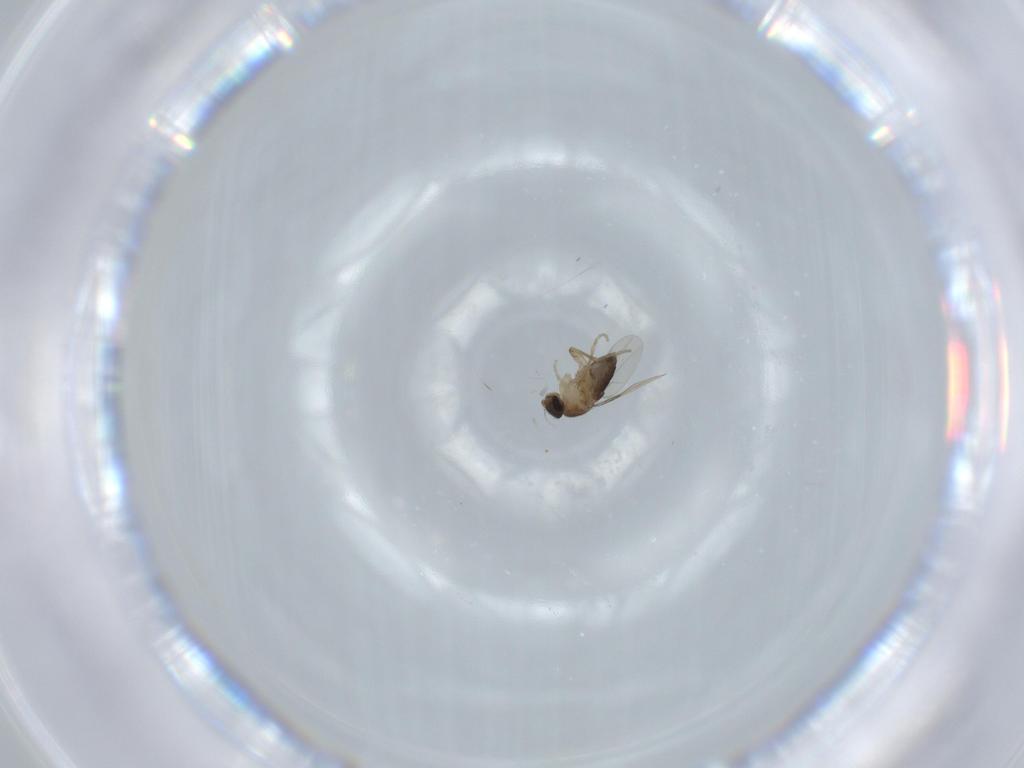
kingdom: Animalia
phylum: Arthropoda
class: Insecta
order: Diptera
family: Phoridae
